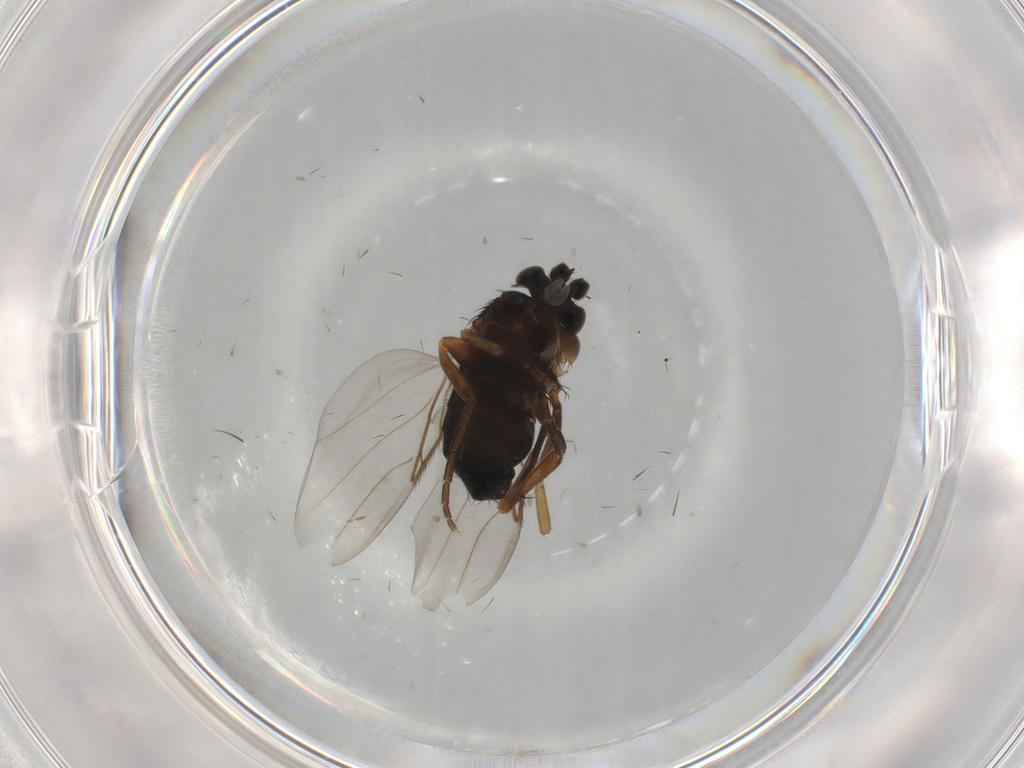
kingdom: Animalia
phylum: Arthropoda
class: Insecta
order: Diptera
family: Phoridae
